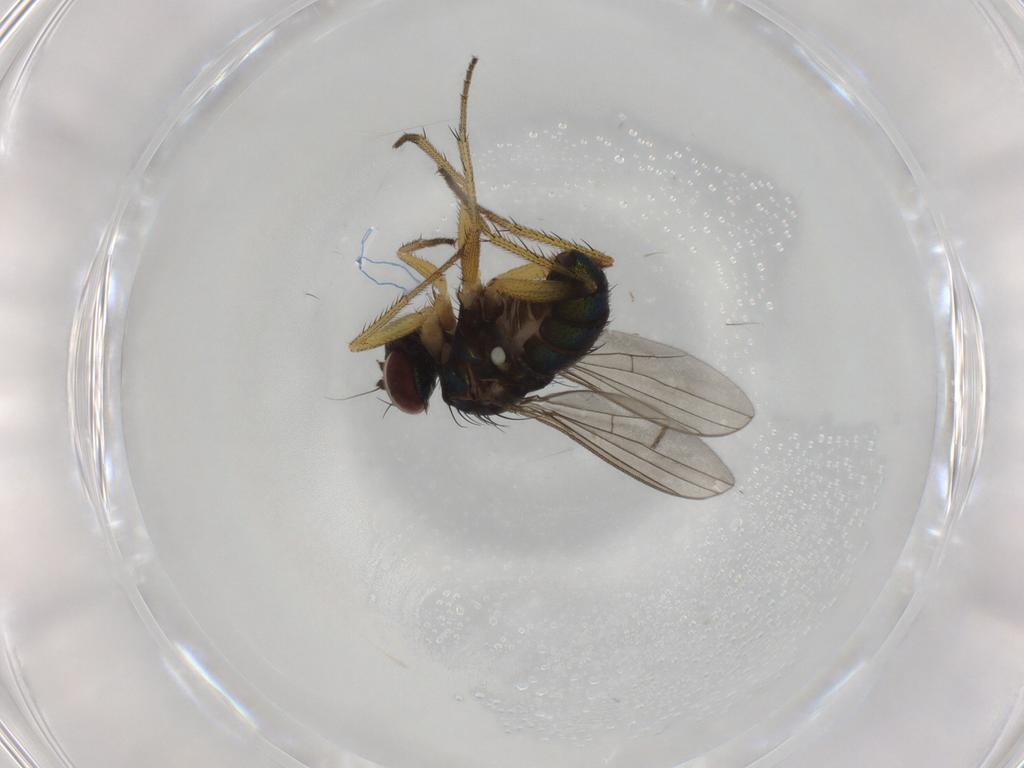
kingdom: Animalia
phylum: Arthropoda
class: Insecta
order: Diptera
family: Dolichopodidae
